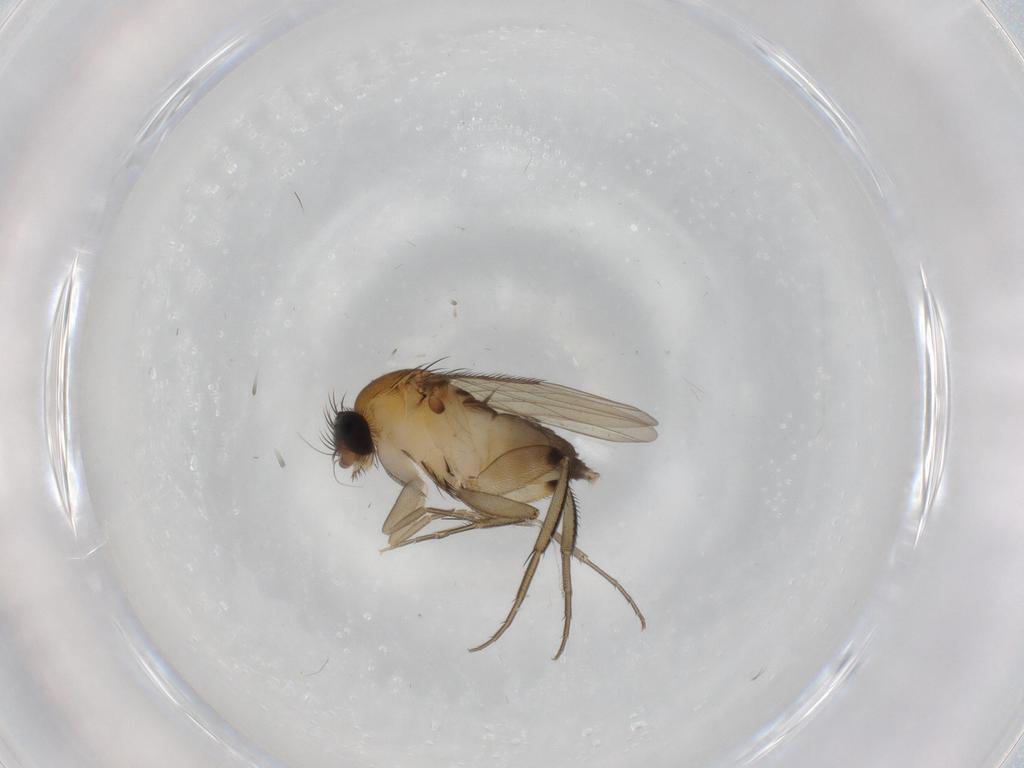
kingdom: Animalia
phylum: Arthropoda
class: Insecta
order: Diptera
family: Phoridae
